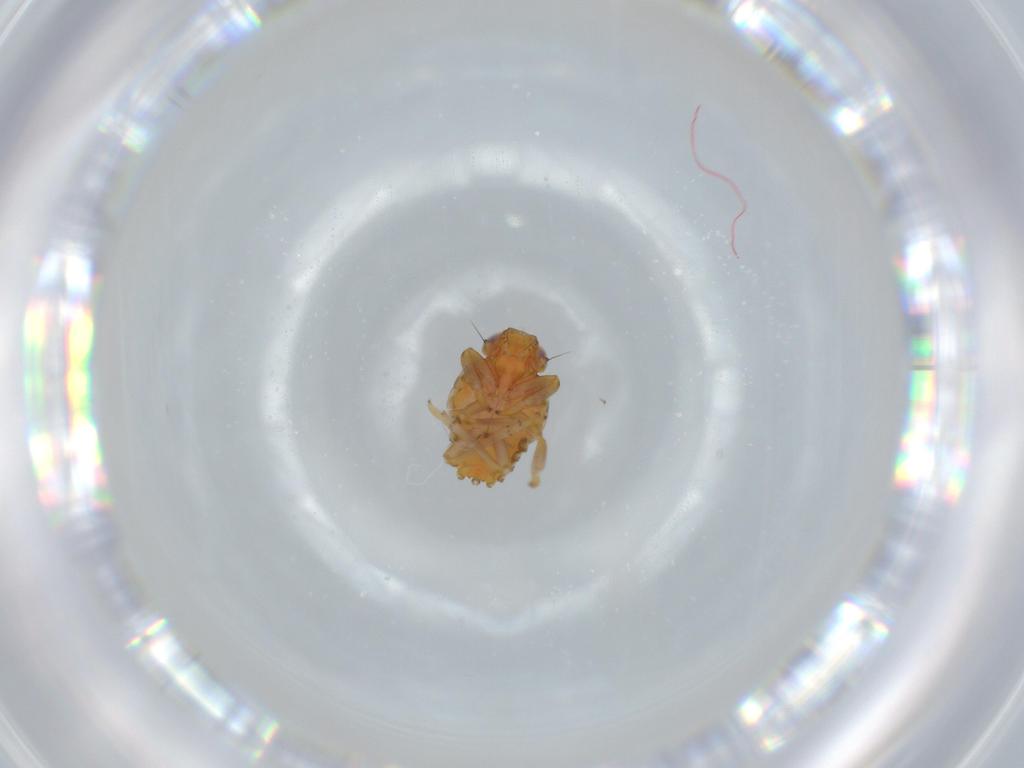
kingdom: Animalia
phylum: Arthropoda
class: Insecta
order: Hemiptera
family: Issidae
